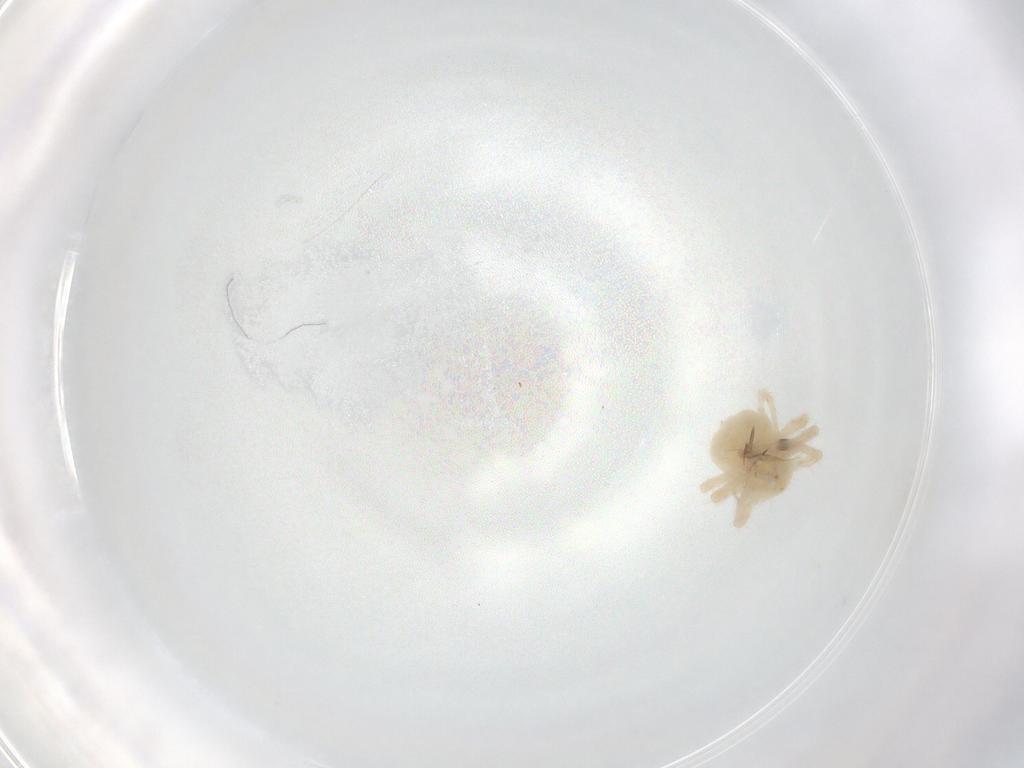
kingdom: Animalia
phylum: Arthropoda
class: Arachnida
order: Trombidiformes
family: Anystidae
